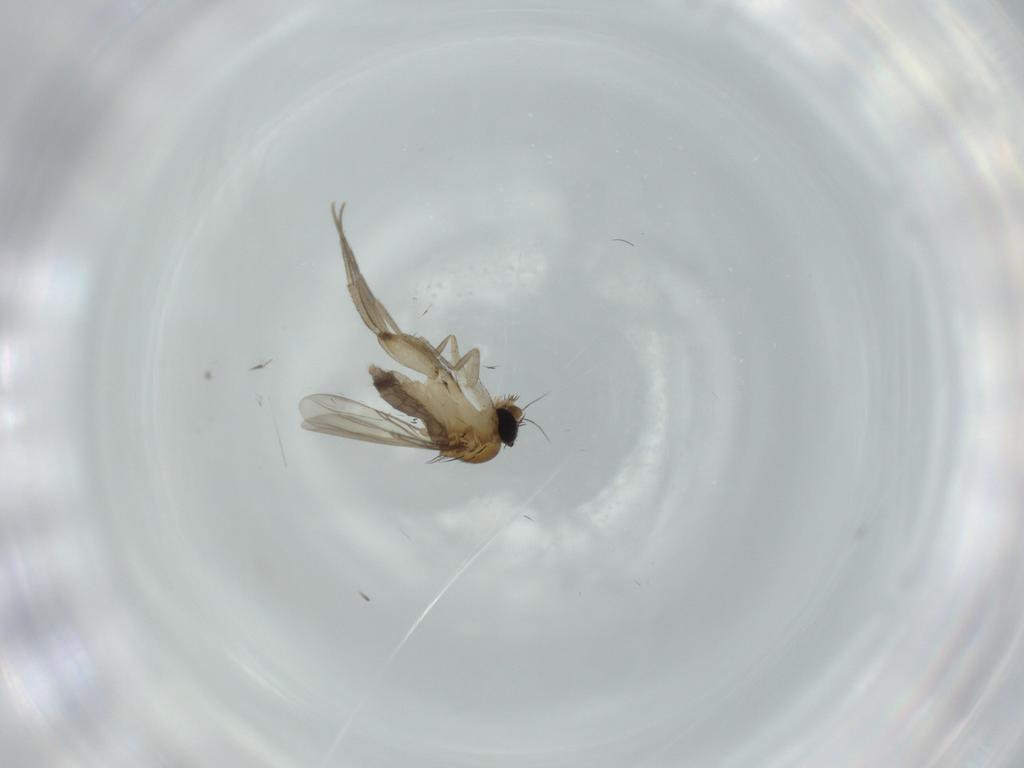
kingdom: Animalia
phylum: Arthropoda
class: Insecta
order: Diptera
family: Phoridae
